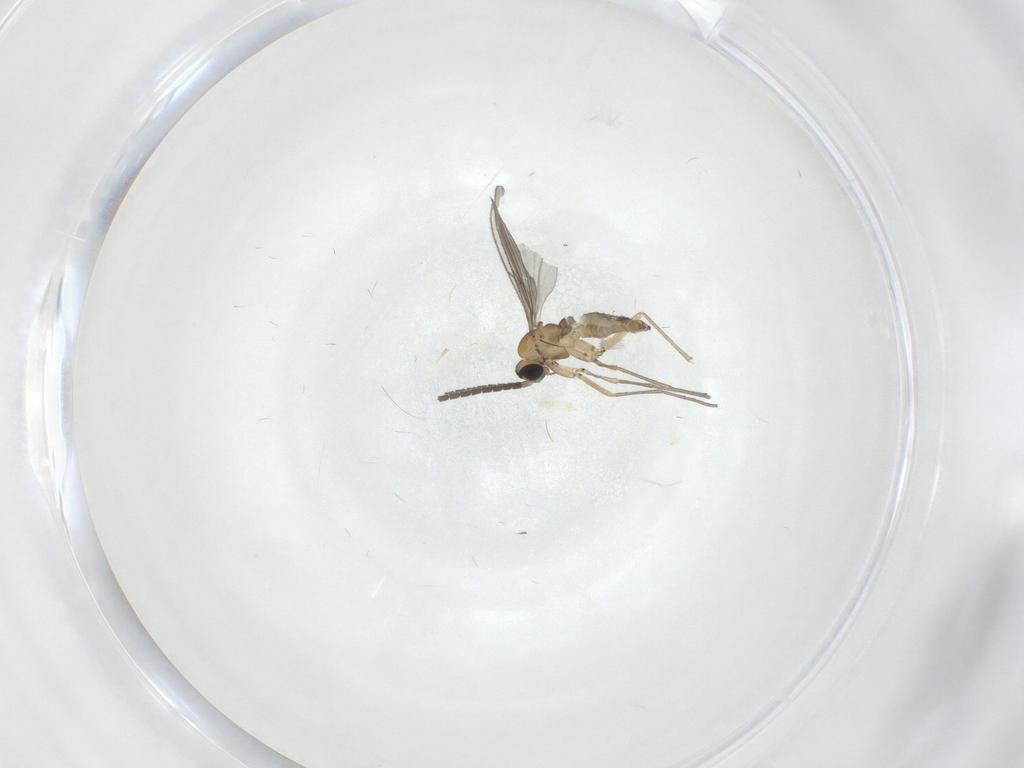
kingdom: Animalia
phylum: Arthropoda
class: Insecta
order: Diptera
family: Sciaridae
